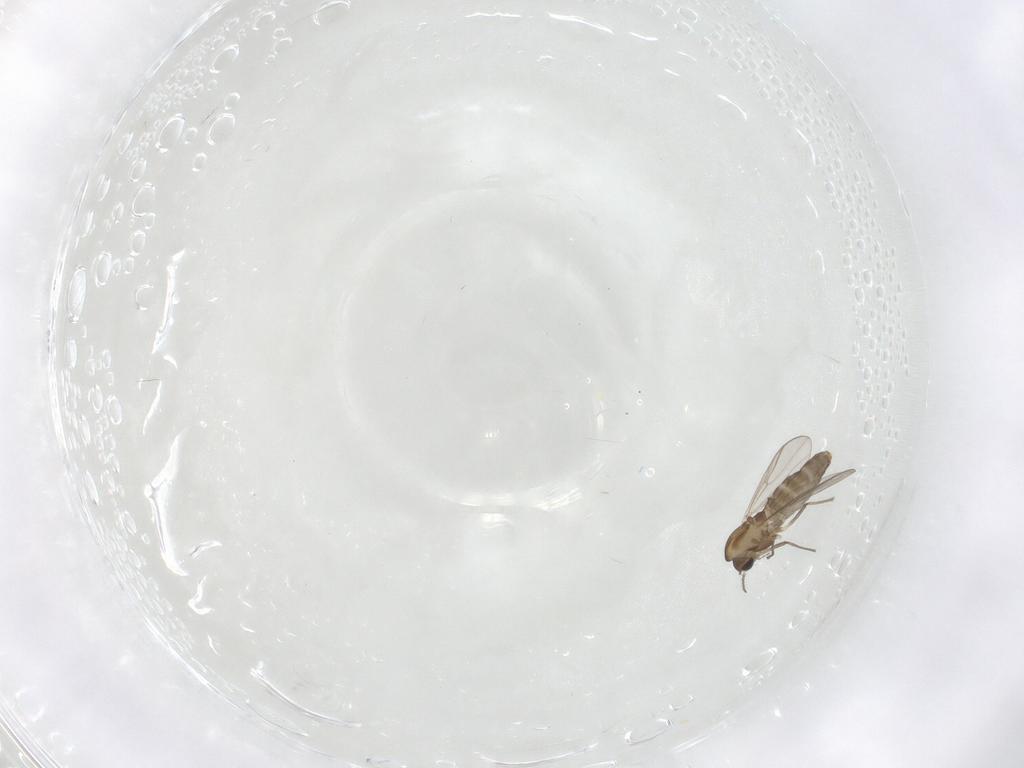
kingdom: Animalia
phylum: Arthropoda
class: Insecta
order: Diptera
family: Chironomidae
